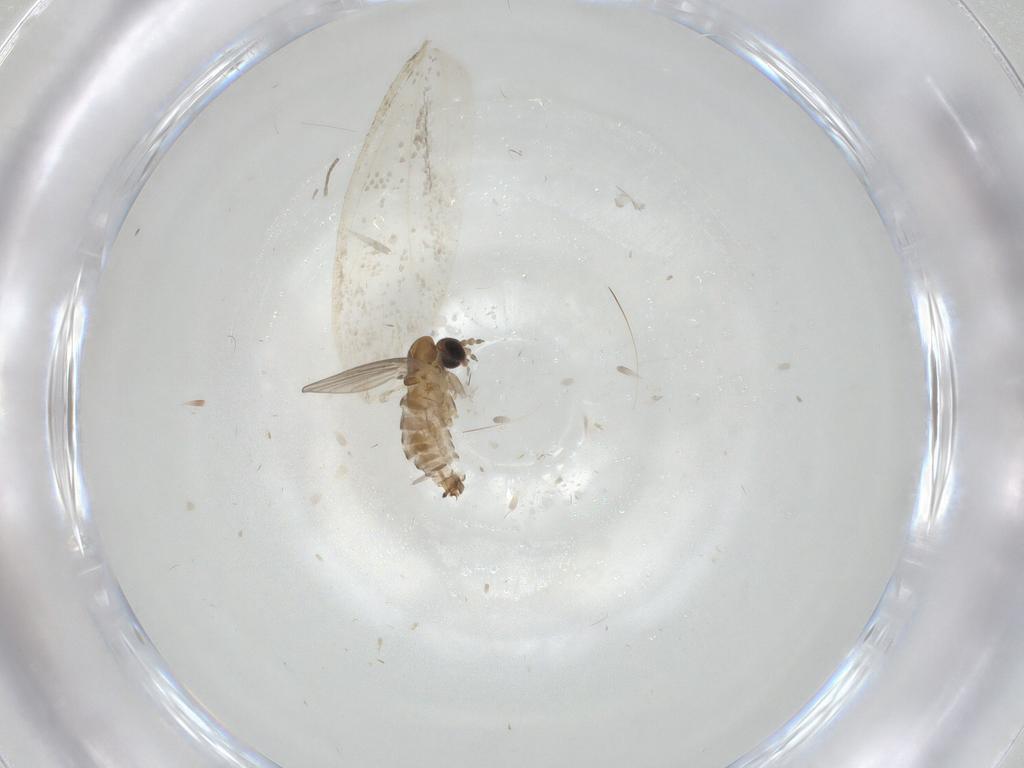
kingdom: Animalia
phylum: Arthropoda
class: Insecta
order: Diptera
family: Psychodidae
